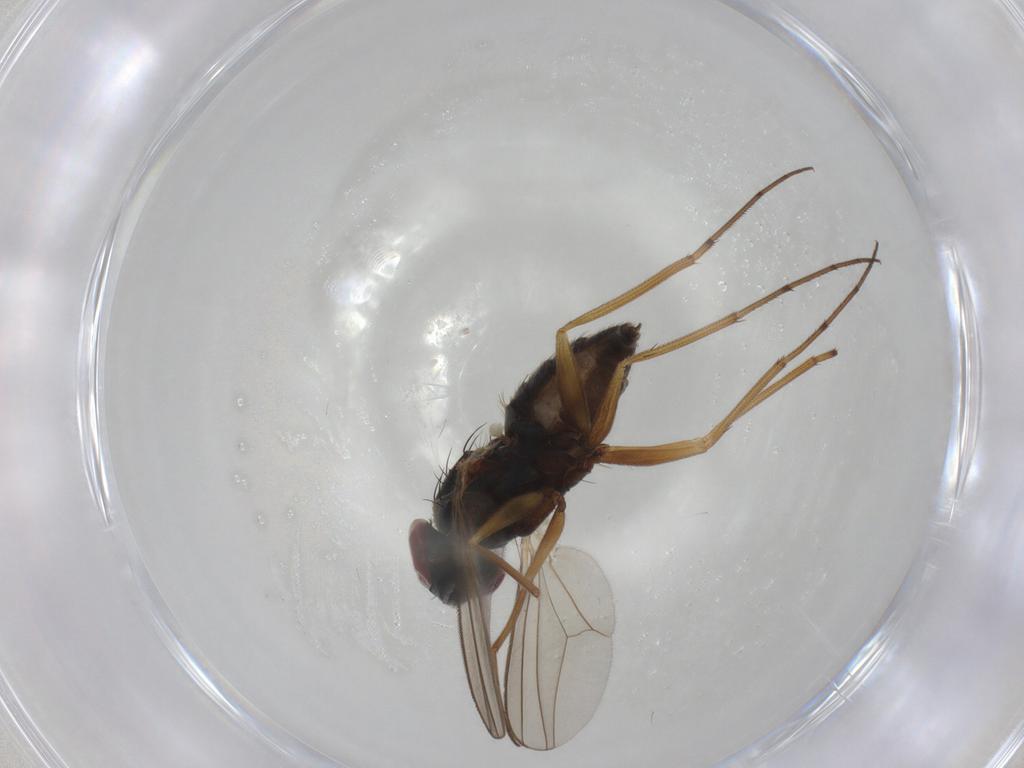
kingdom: Animalia
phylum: Arthropoda
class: Insecta
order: Diptera
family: Dolichopodidae
